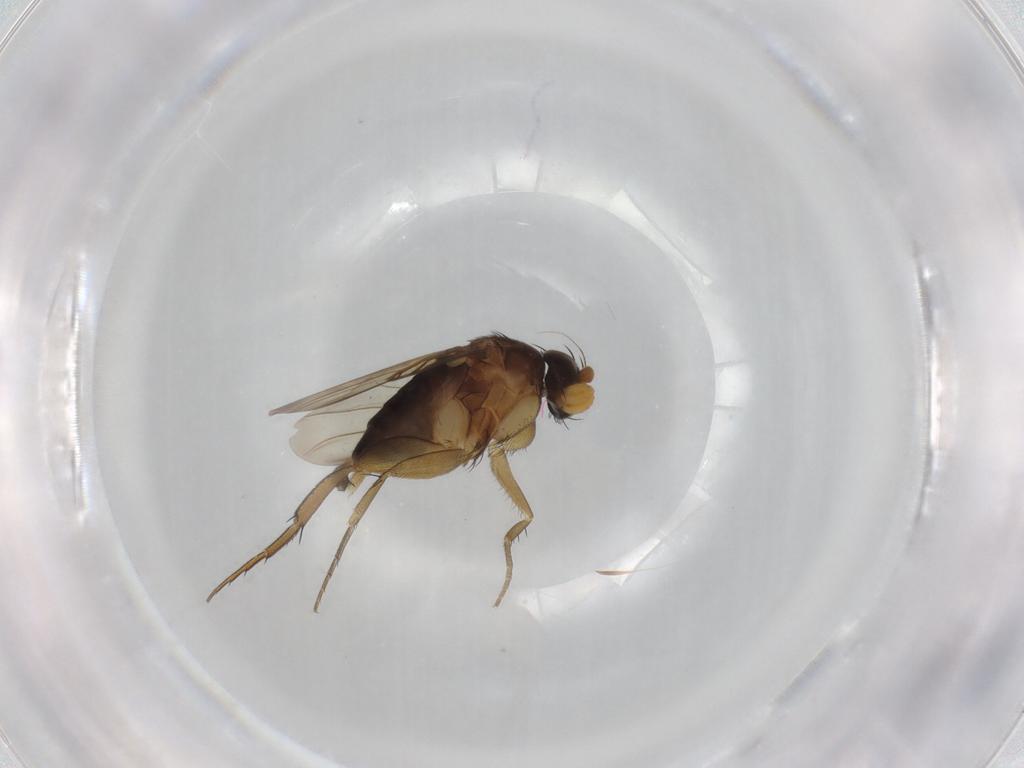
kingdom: Animalia
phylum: Arthropoda
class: Insecta
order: Diptera
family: Phoridae
